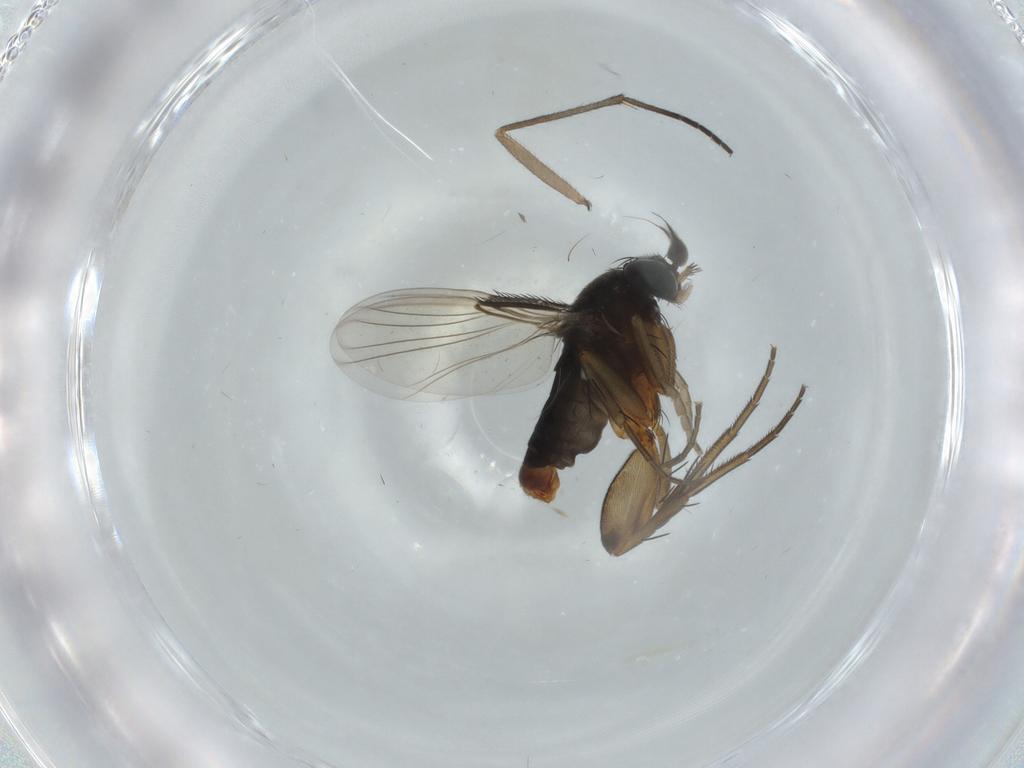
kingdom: Animalia
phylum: Arthropoda
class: Insecta
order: Diptera
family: Phoridae
